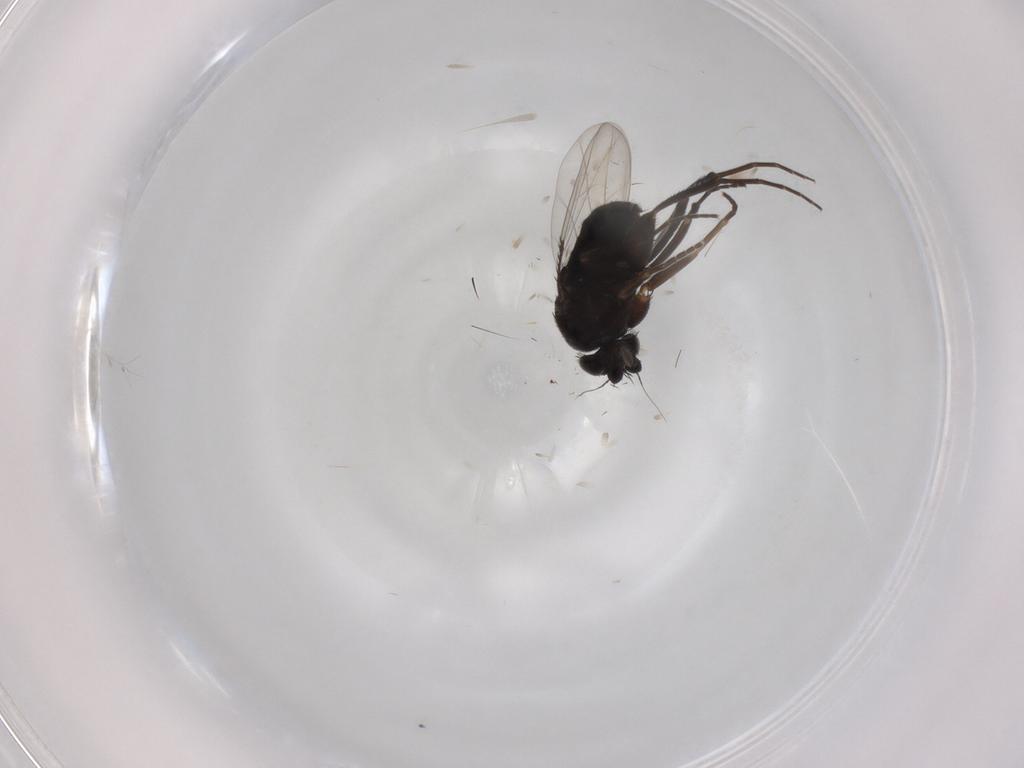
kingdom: Animalia
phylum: Arthropoda
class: Insecta
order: Diptera
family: Phoridae
